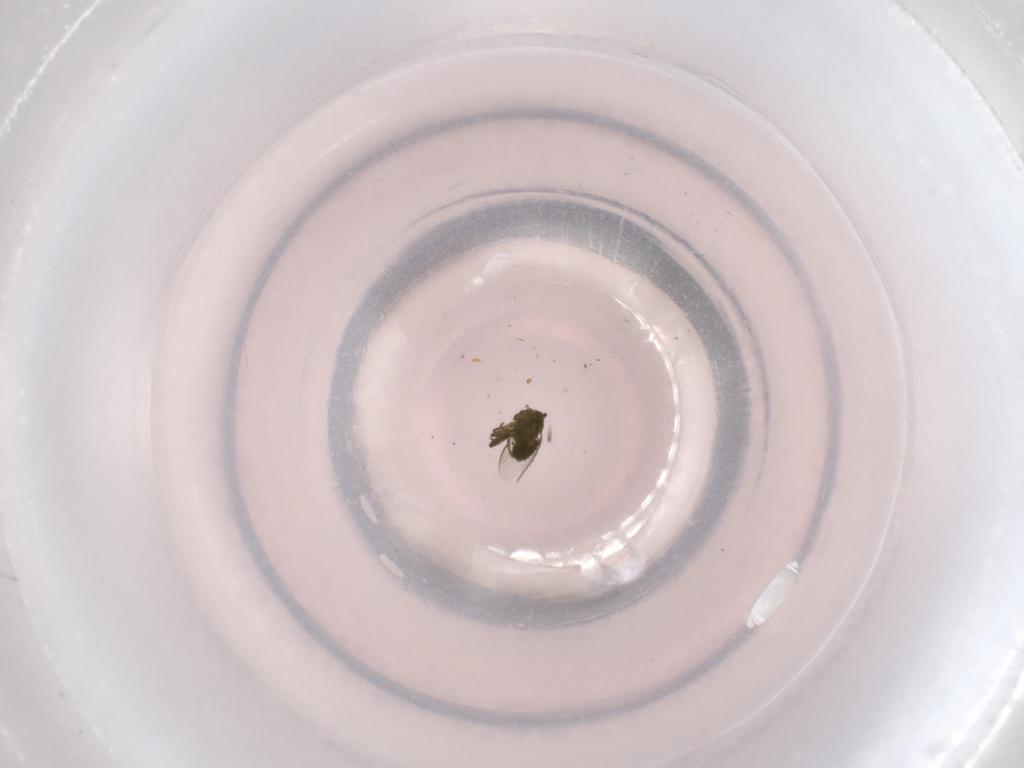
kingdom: Animalia
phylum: Arthropoda
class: Insecta
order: Diptera
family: Sphaeroceridae
